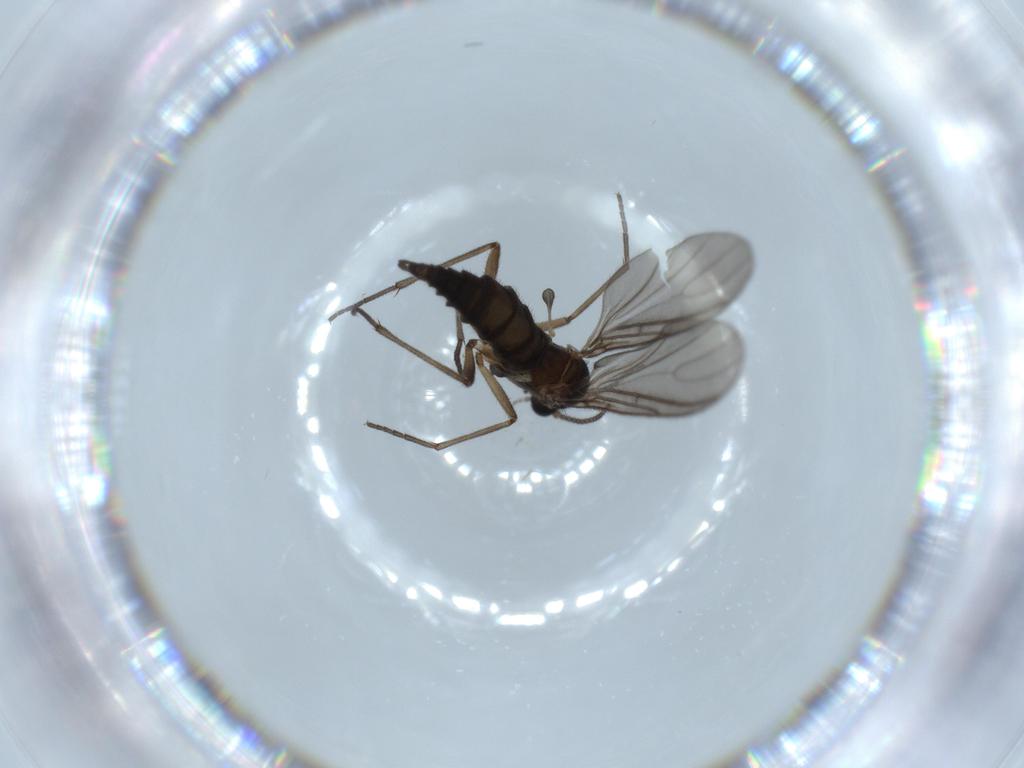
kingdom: Animalia
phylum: Arthropoda
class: Insecta
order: Diptera
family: Sciaridae
